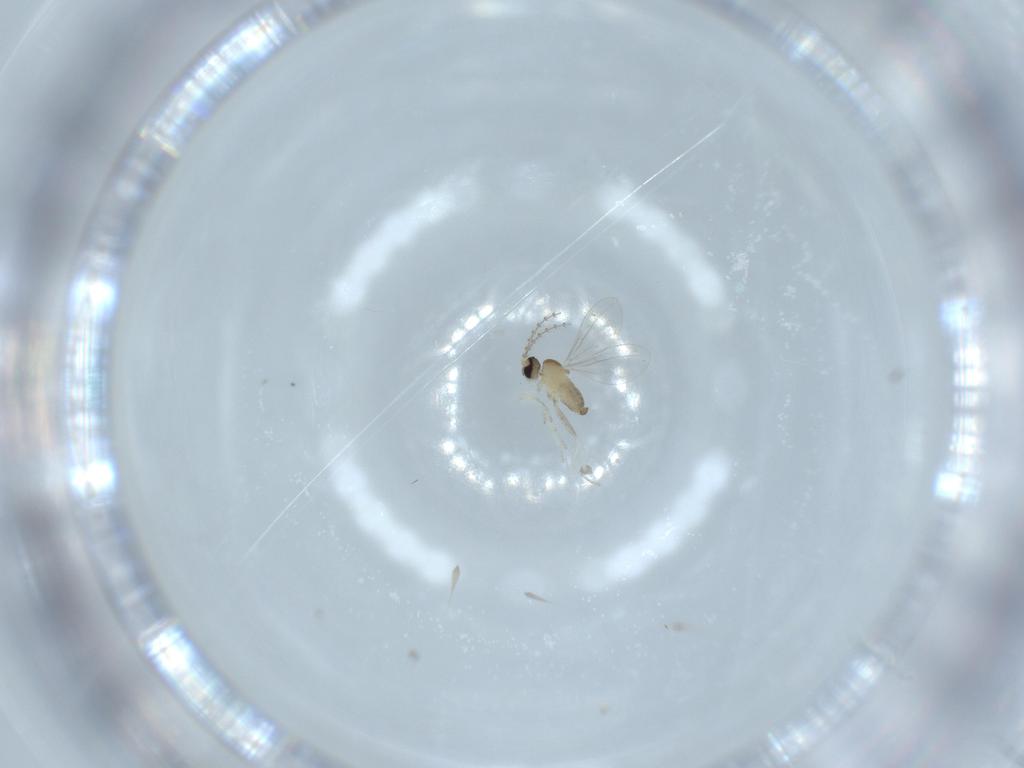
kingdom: Animalia
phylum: Arthropoda
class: Insecta
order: Diptera
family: Cecidomyiidae
